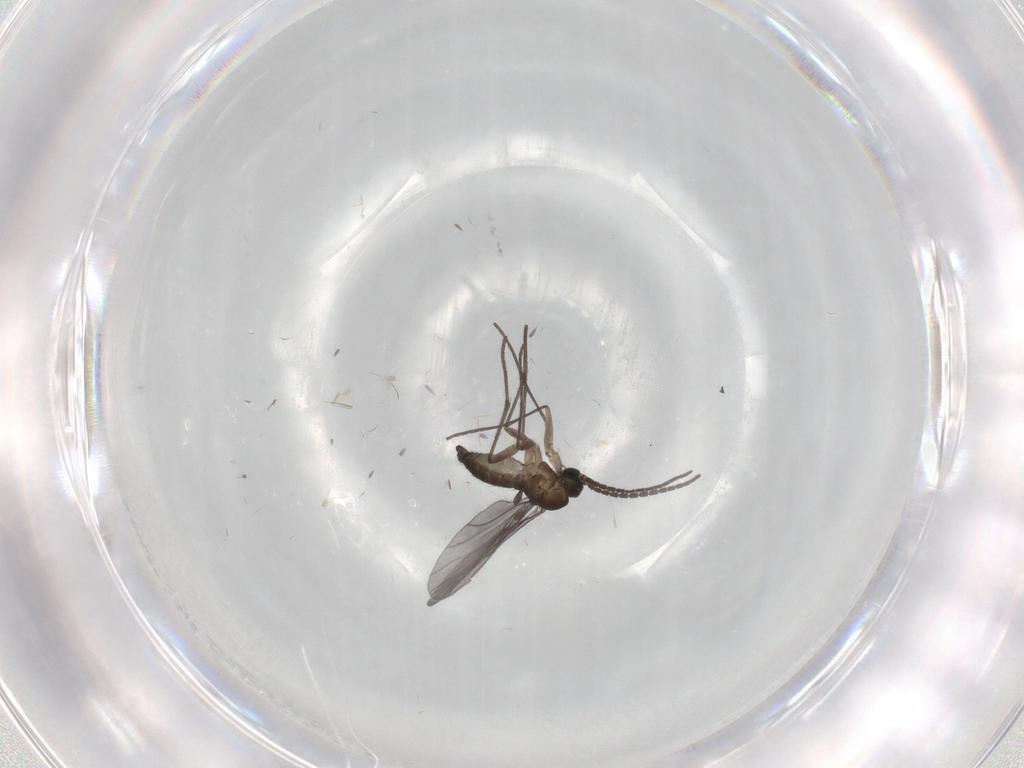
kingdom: Animalia
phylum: Arthropoda
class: Insecta
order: Diptera
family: Sciaridae
